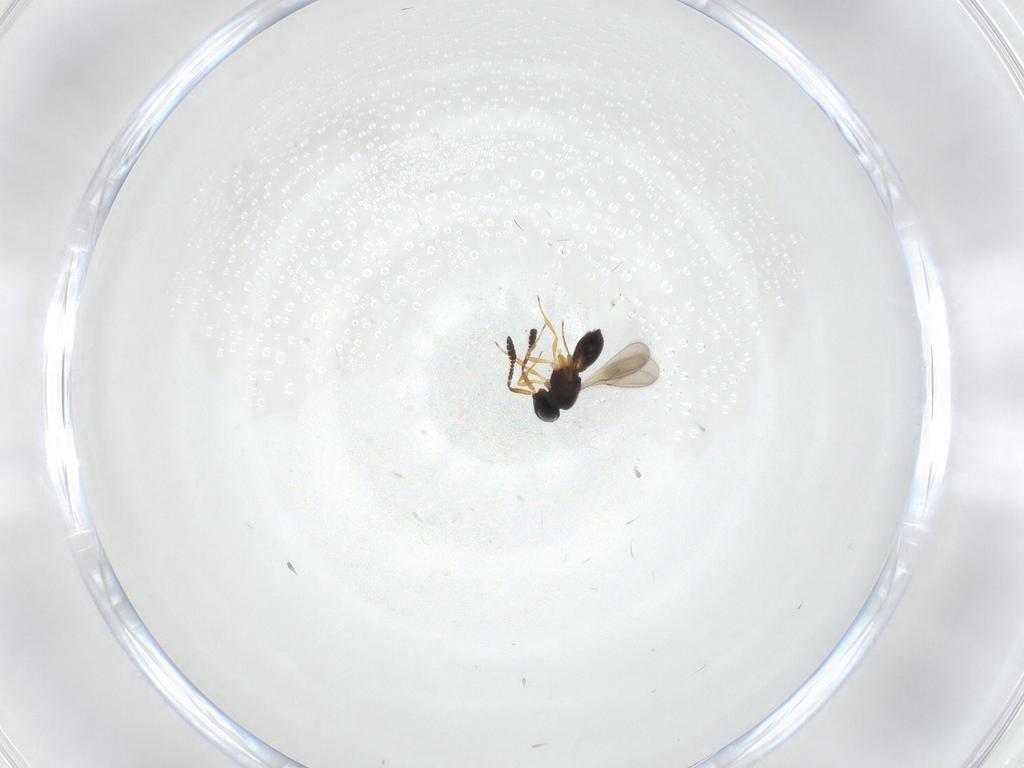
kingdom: Animalia
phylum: Arthropoda
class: Insecta
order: Hymenoptera
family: Scelionidae
